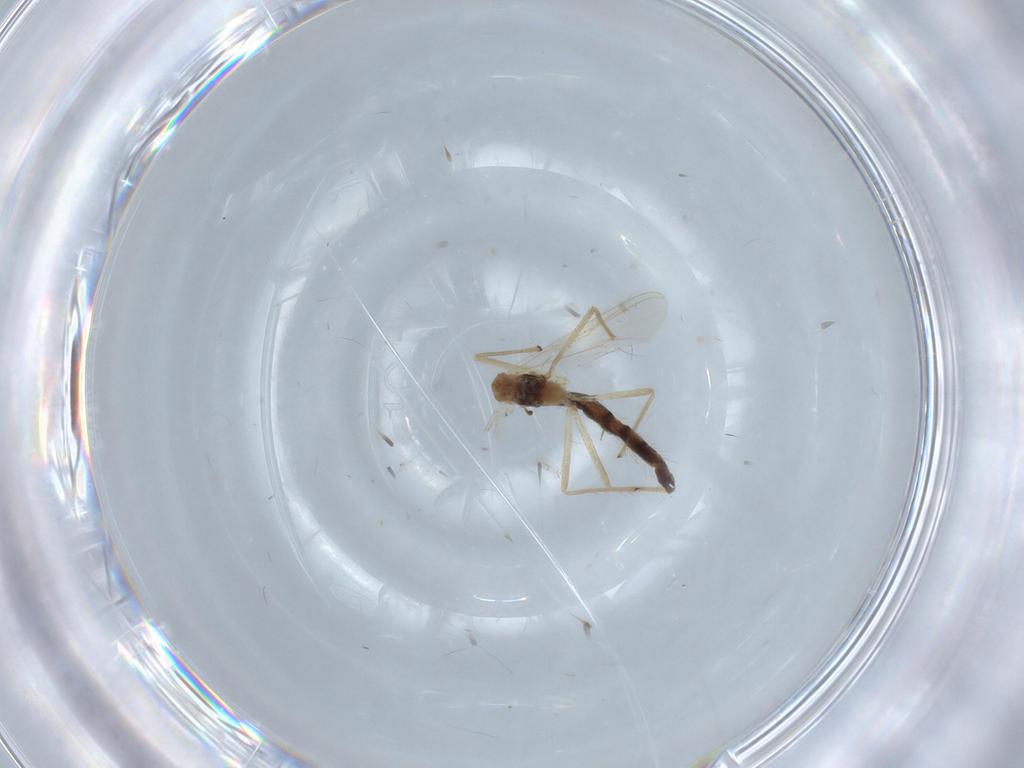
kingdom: Animalia
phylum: Arthropoda
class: Insecta
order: Diptera
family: Chironomidae
